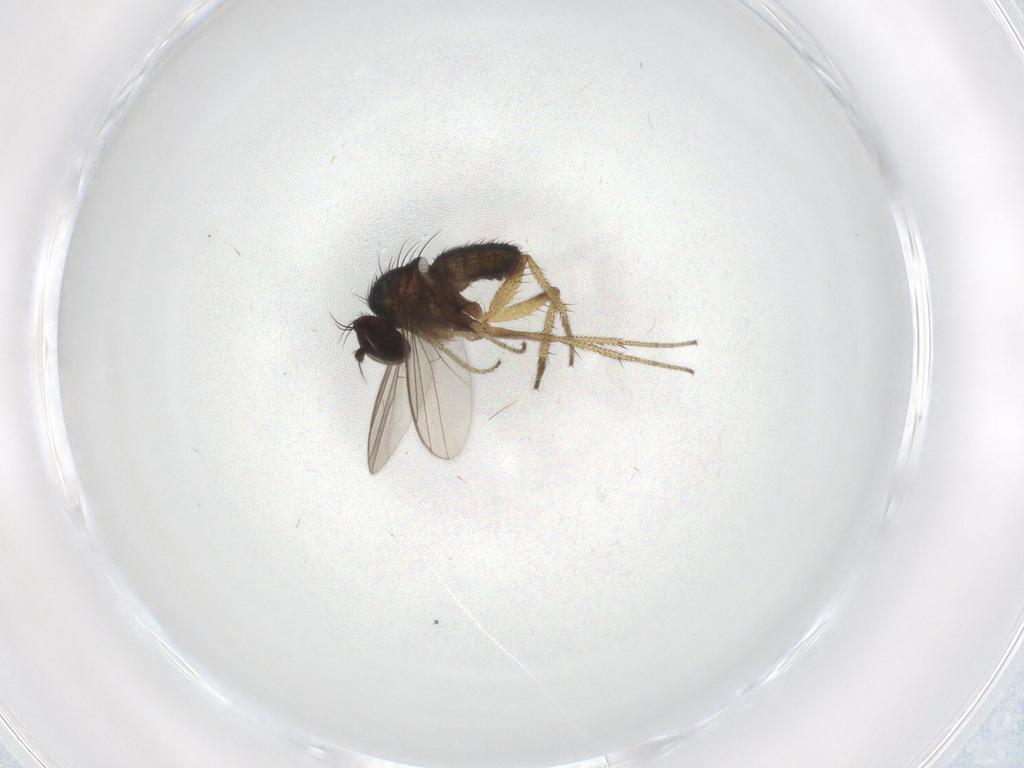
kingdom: Animalia
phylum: Arthropoda
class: Insecta
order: Diptera
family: Dolichopodidae
